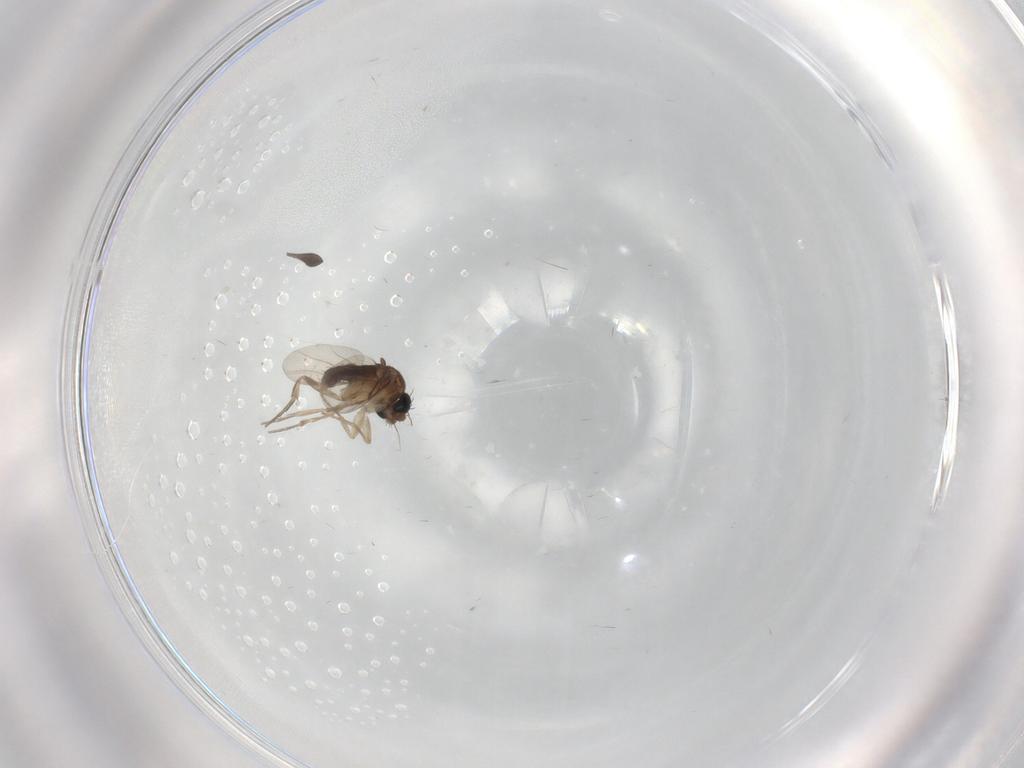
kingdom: Animalia
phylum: Arthropoda
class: Insecta
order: Diptera
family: Phoridae
